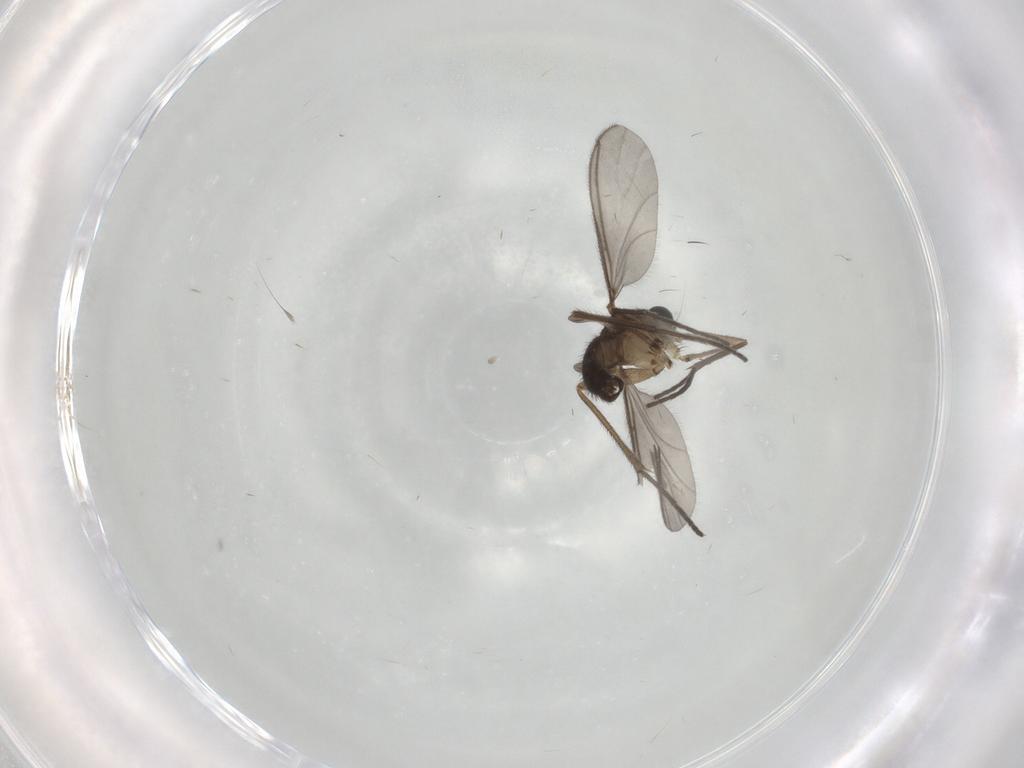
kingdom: Animalia
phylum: Arthropoda
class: Insecta
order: Diptera
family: Sciaridae
